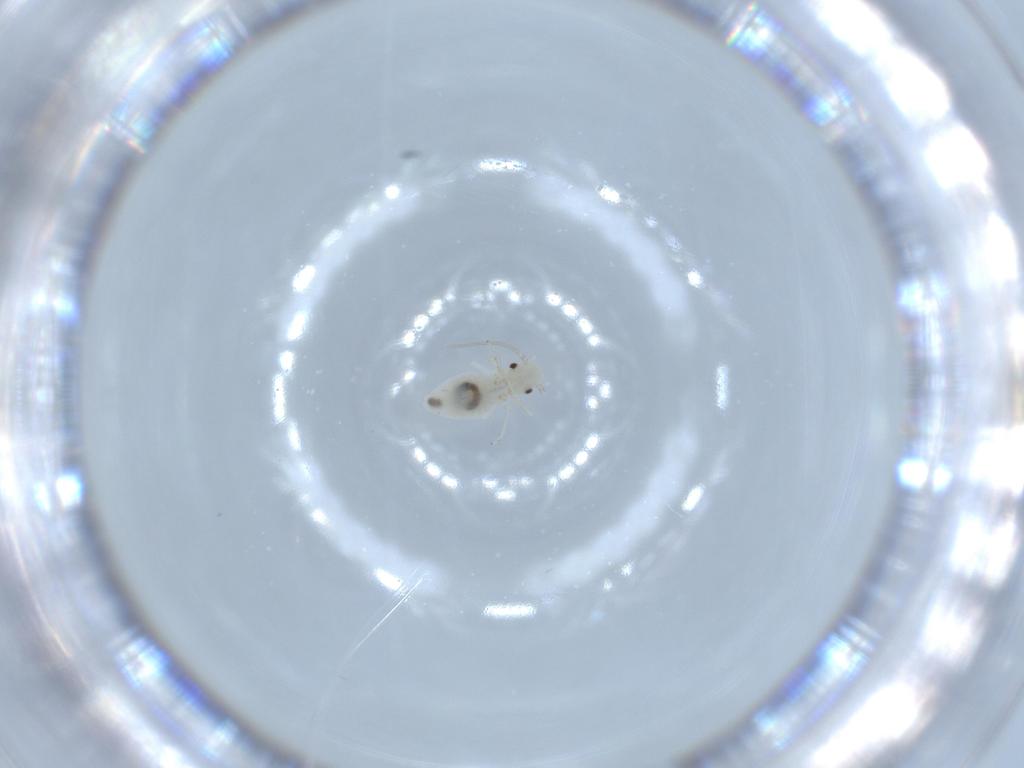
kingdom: Animalia
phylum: Arthropoda
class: Insecta
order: Psocodea
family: Caeciliusidae
